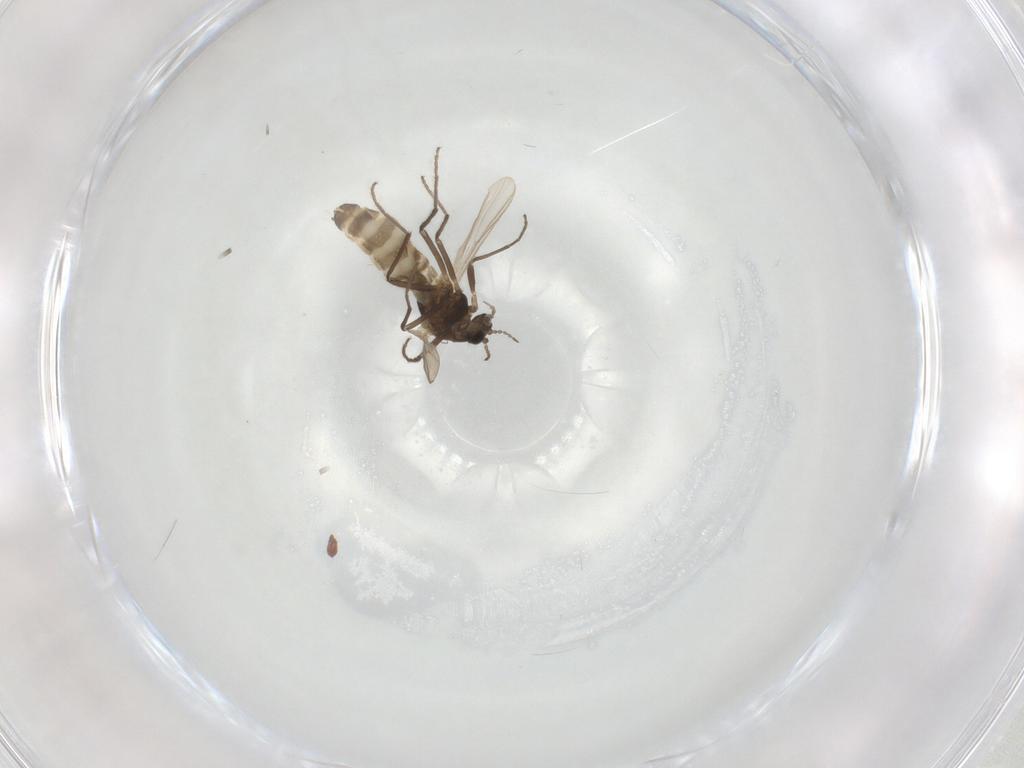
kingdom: Animalia
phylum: Arthropoda
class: Insecta
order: Diptera
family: Chironomidae
